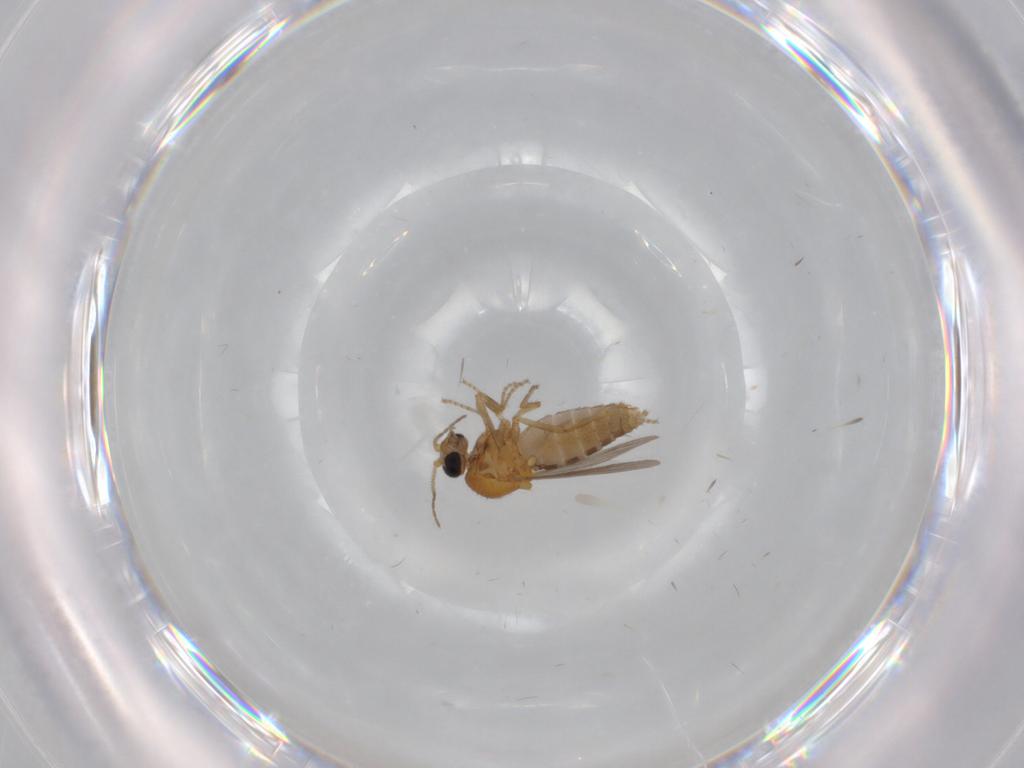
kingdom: Animalia
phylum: Arthropoda
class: Insecta
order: Diptera
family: Ceratopogonidae
